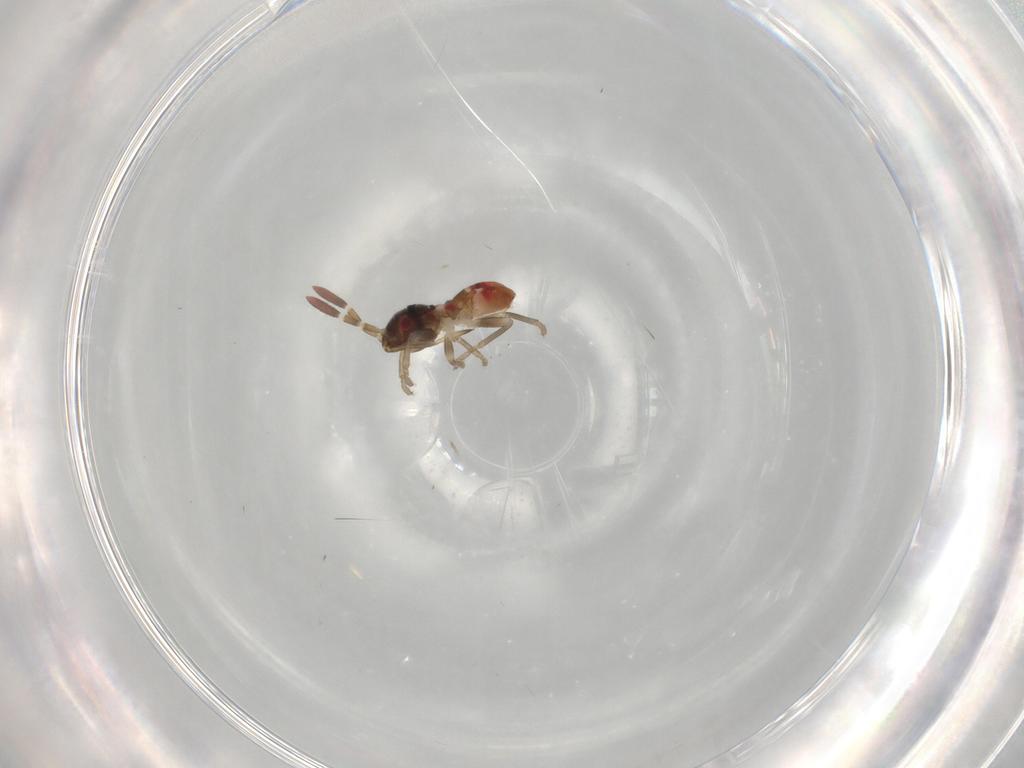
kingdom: Animalia
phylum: Arthropoda
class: Insecta
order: Hemiptera
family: Rhyparochromidae
